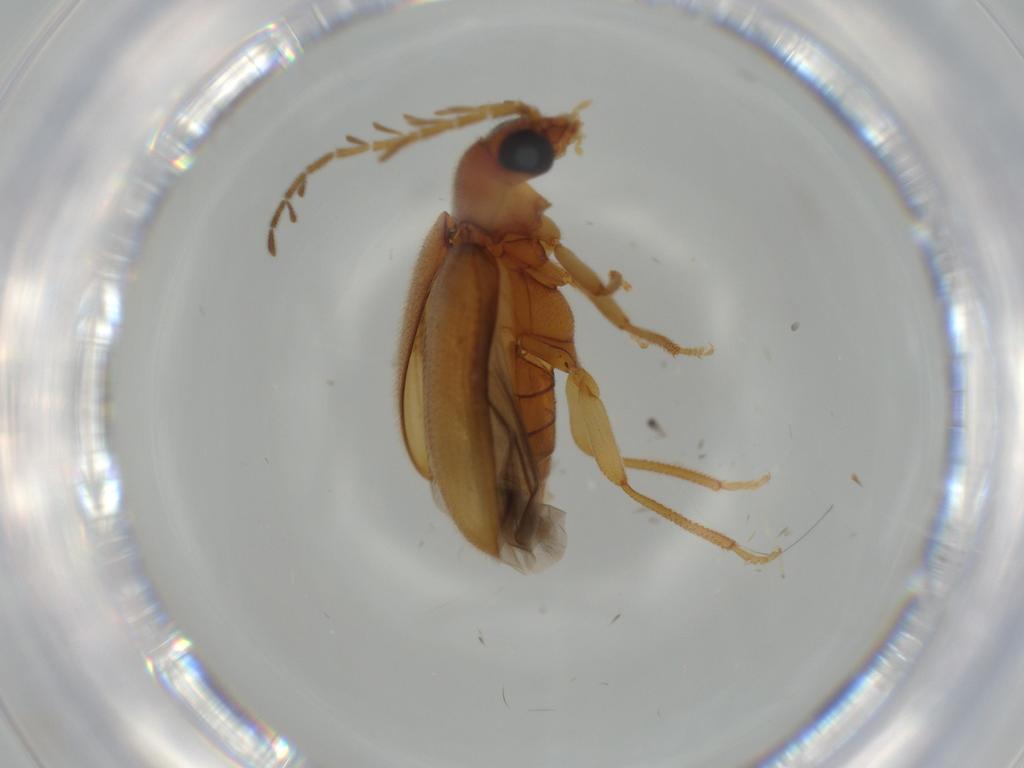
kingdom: Animalia
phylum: Arthropoda
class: Insecta
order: Coleoptera
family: Ptilodactylidae
